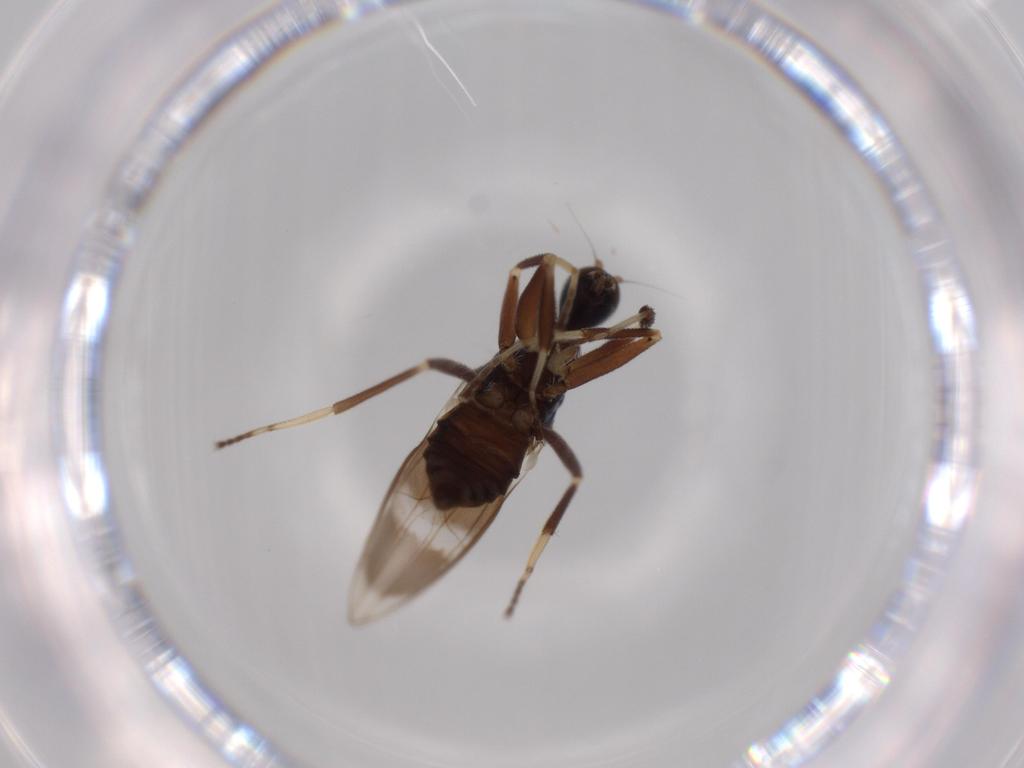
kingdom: Animalia
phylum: Arthropoda
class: Insecta
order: Diptera
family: Hybotidae
